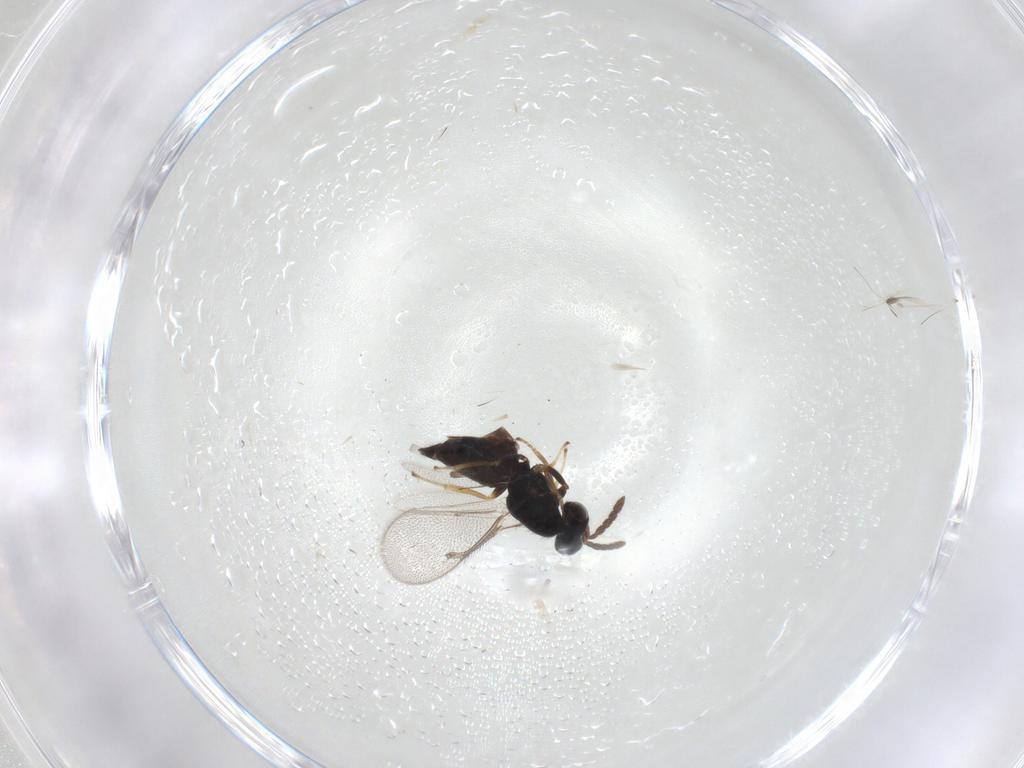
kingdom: Animalia
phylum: Arthropoda
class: Insecta
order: Hymenoptera
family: Eulophidae
